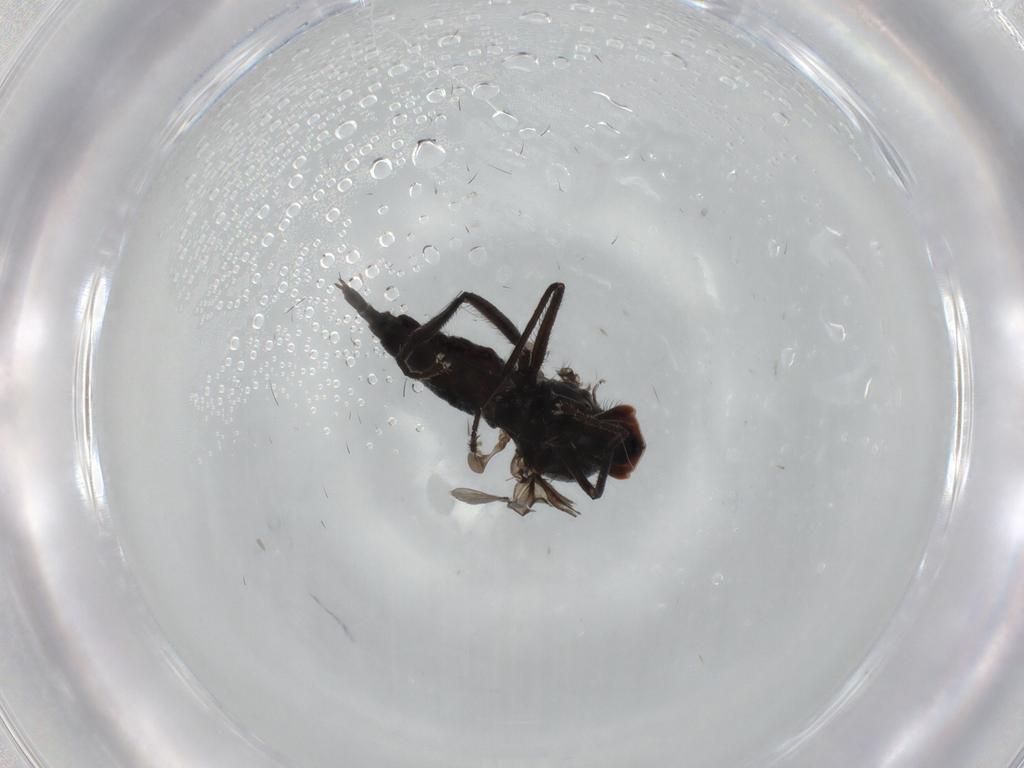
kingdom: Animalia
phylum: Arthropoda
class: Insecta
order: Diptera
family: Hybotidae
